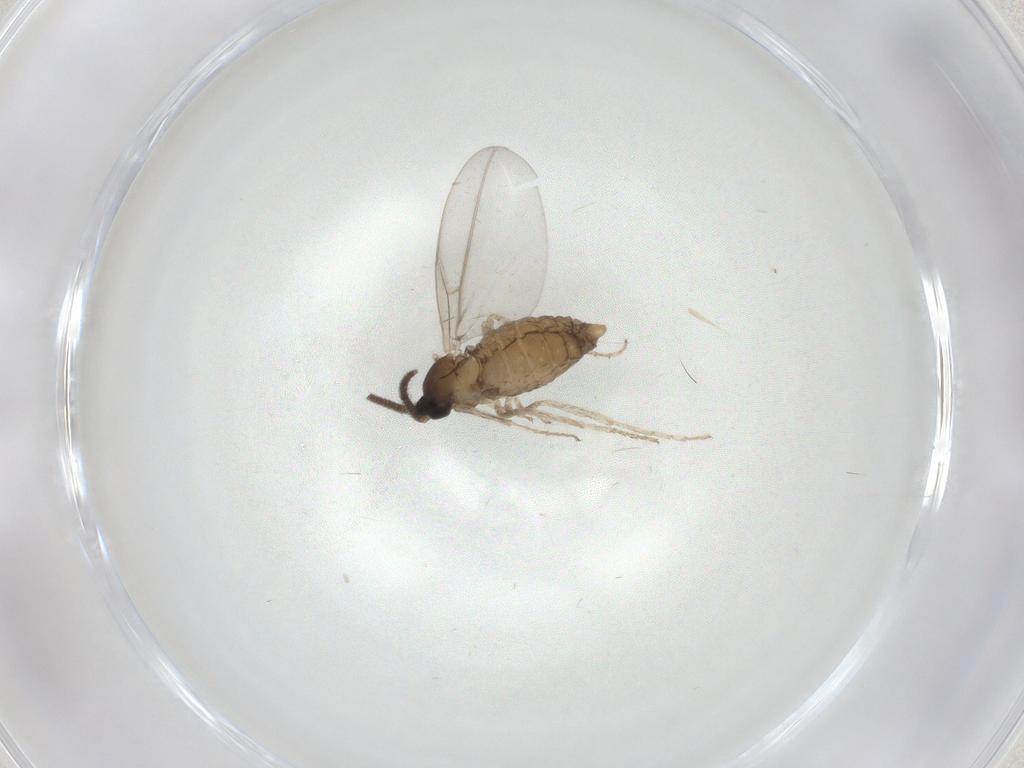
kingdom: Animalia
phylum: Arthropoda
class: Insecta
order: Diptera
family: Cecidomyiidae
